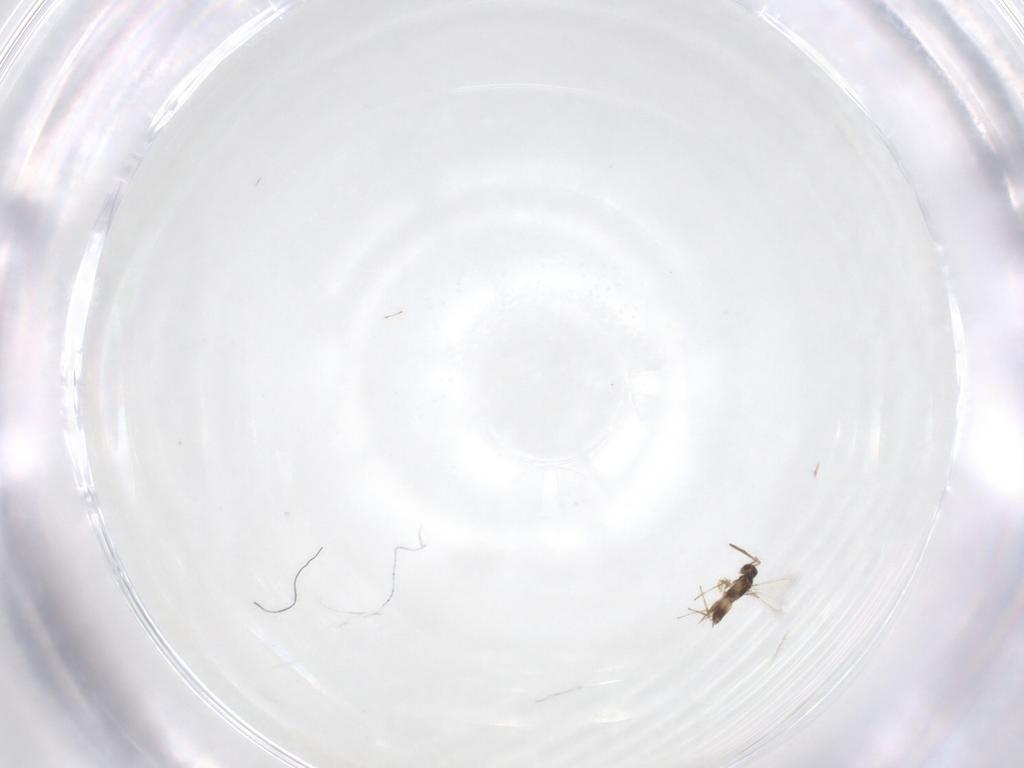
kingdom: Animalia
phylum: Arthropoda
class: Insecta
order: Hymenoptera
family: Mymaridae
